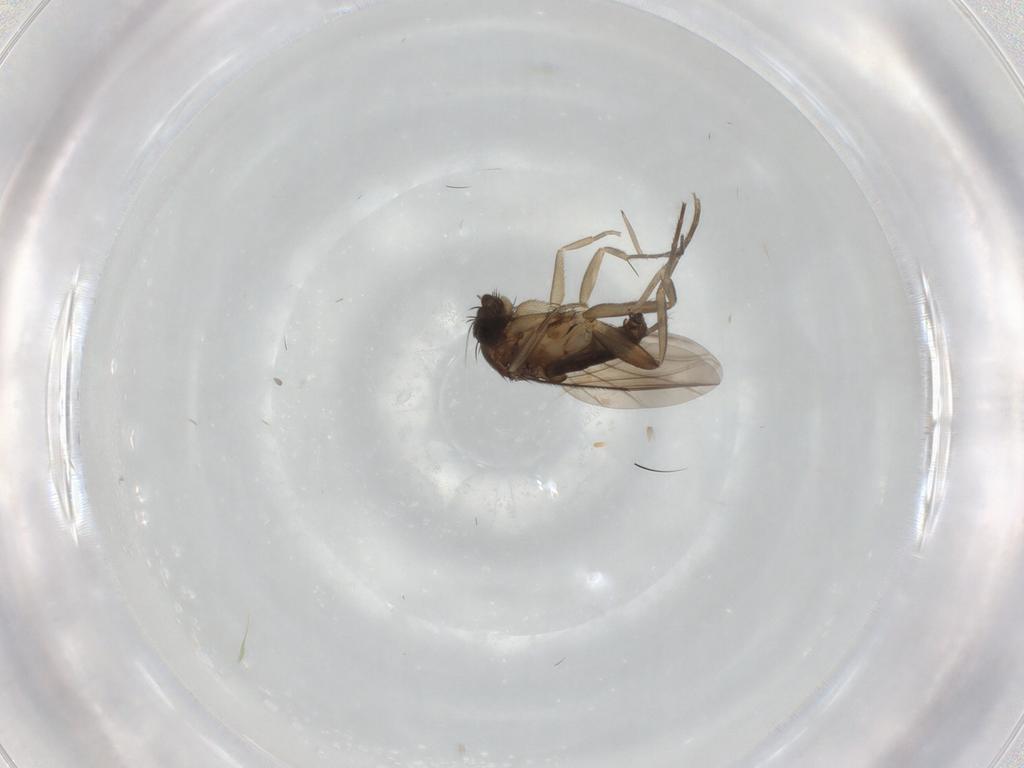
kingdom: Animalia
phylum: Arthropoda
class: Insecta
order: Diptera
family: Phoridae
